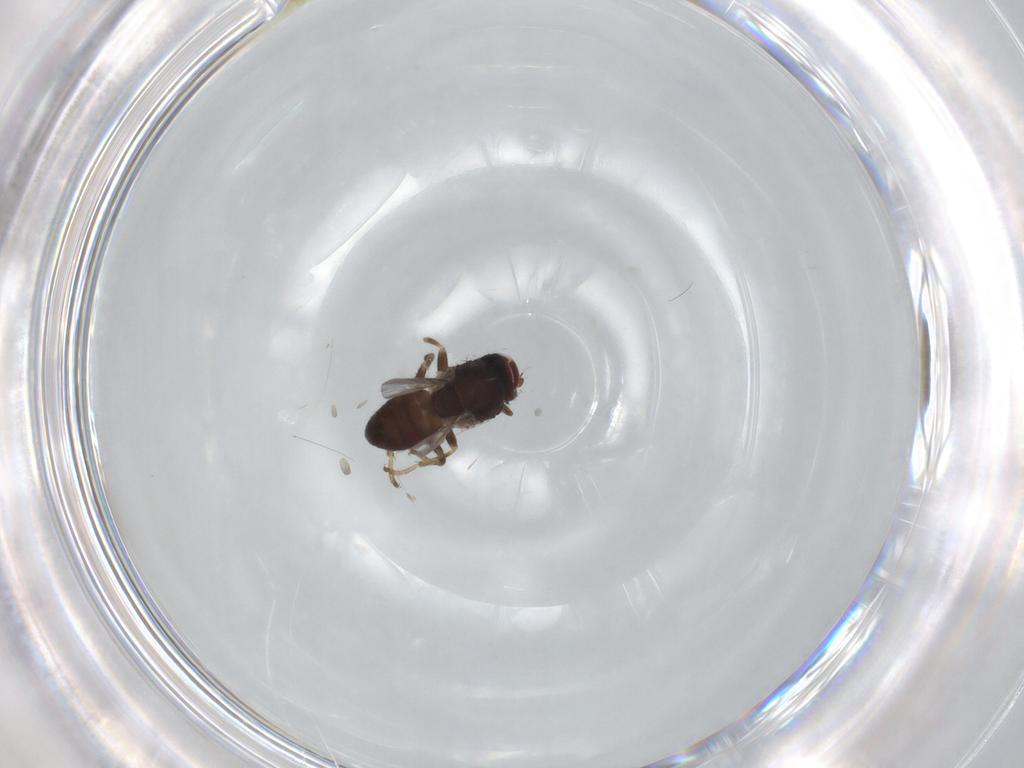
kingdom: Animalia
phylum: Arthropoda
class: Insecta
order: Diptera
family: Chloropidae
